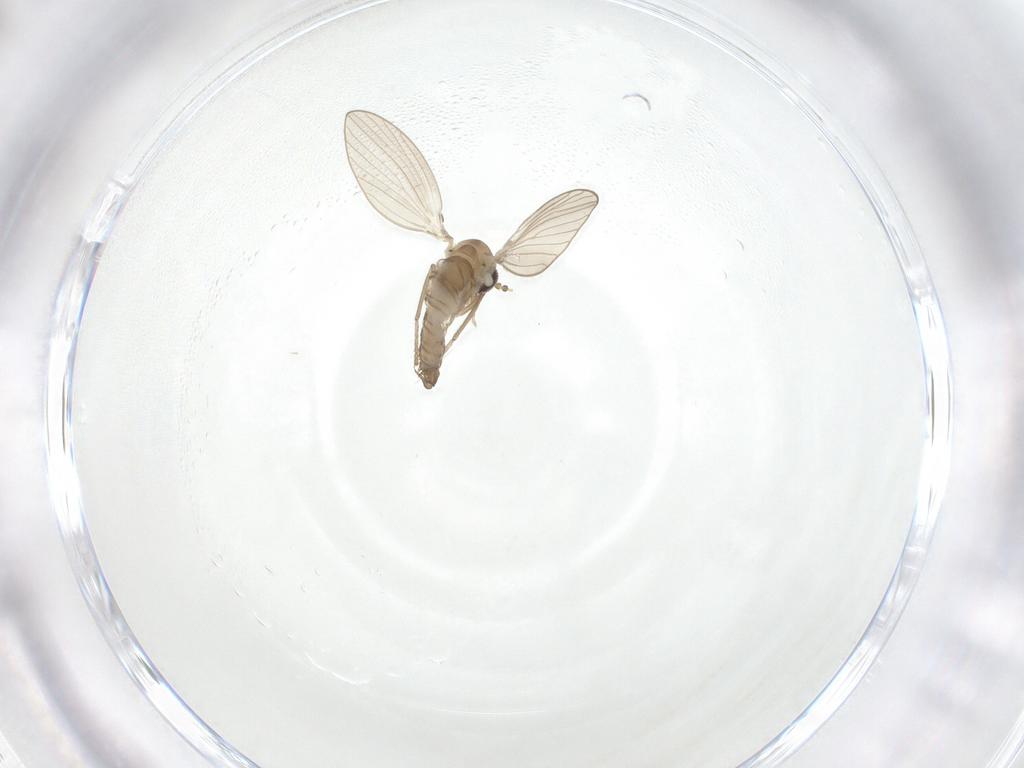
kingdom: Animalia
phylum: Arthropoda
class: Insecta
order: Diptera
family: Psychodidae
